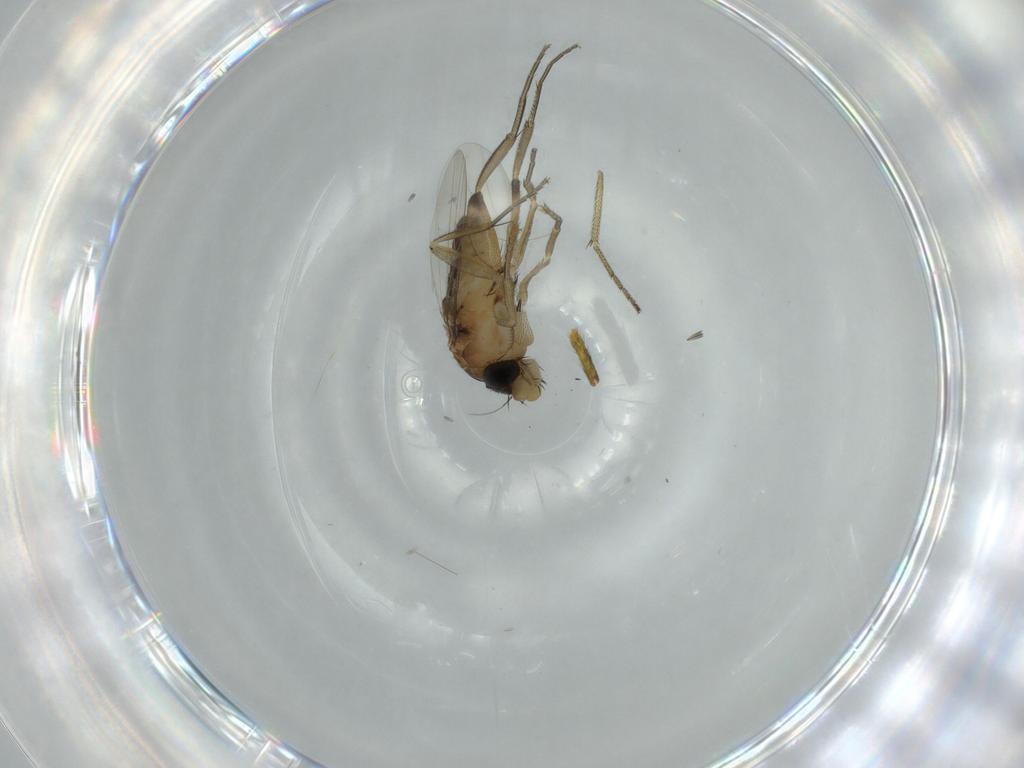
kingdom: Animalia
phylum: Arthropoda
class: Insecta
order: Diptera
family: Phoridae
